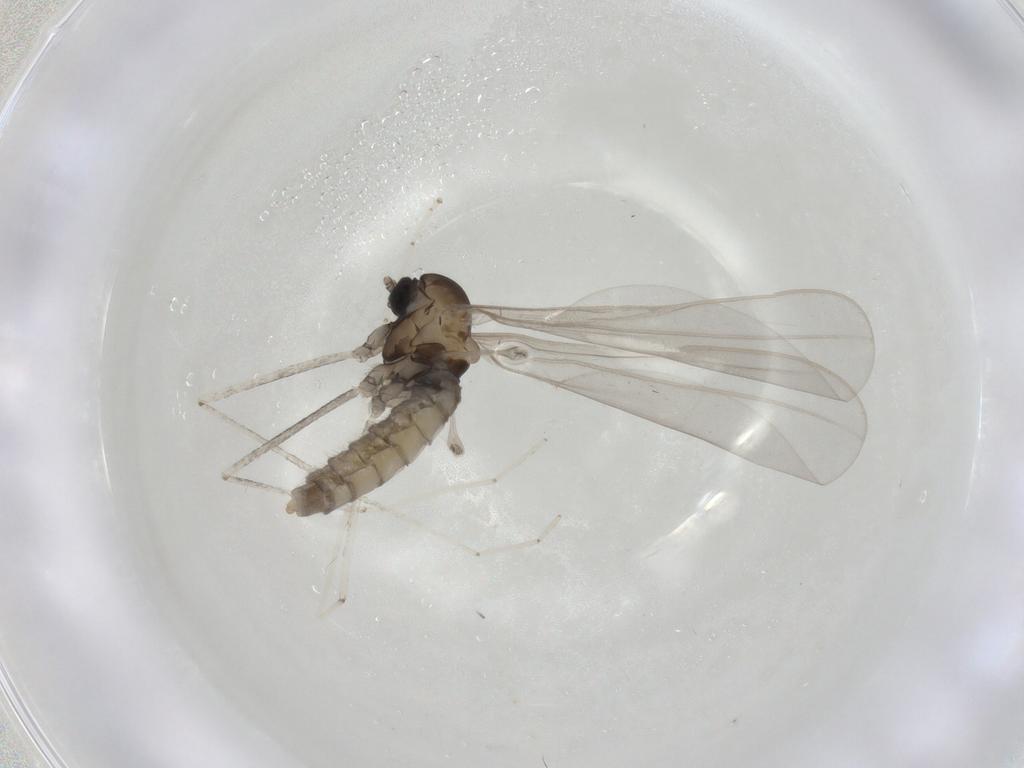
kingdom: Animalia
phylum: Arthropoda
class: Insecta
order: Diptera
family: Cecidomyiidae
